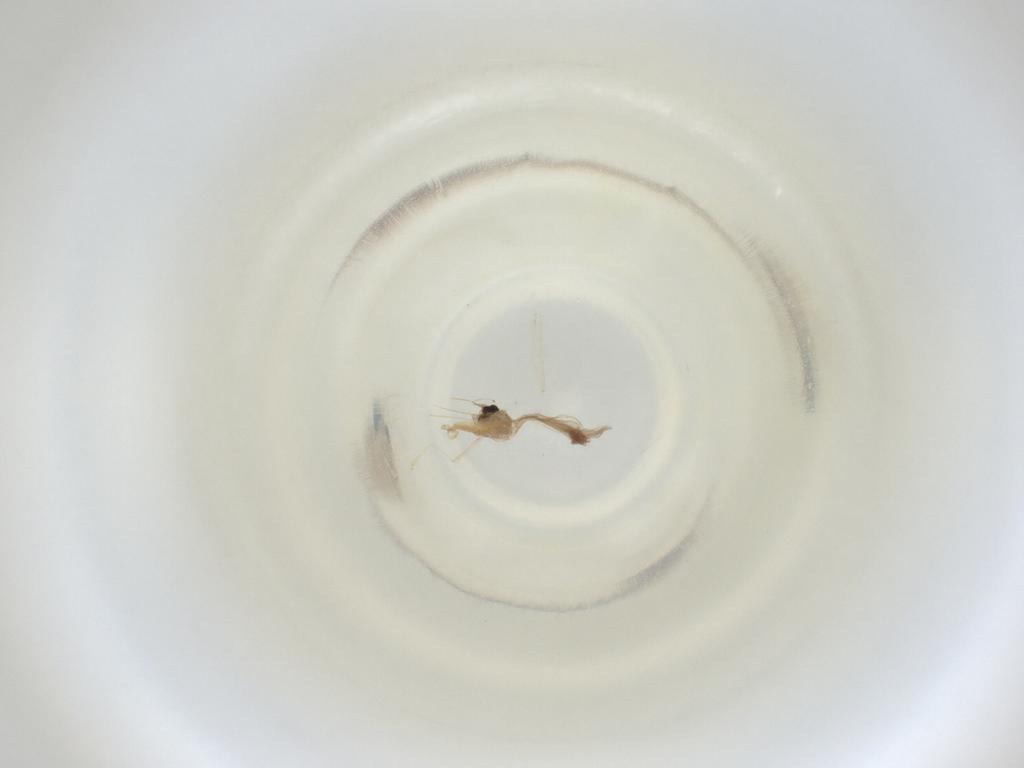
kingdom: Animalia
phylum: Arthropoda
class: Insecta
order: Diptera
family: Cecidomyiidae
